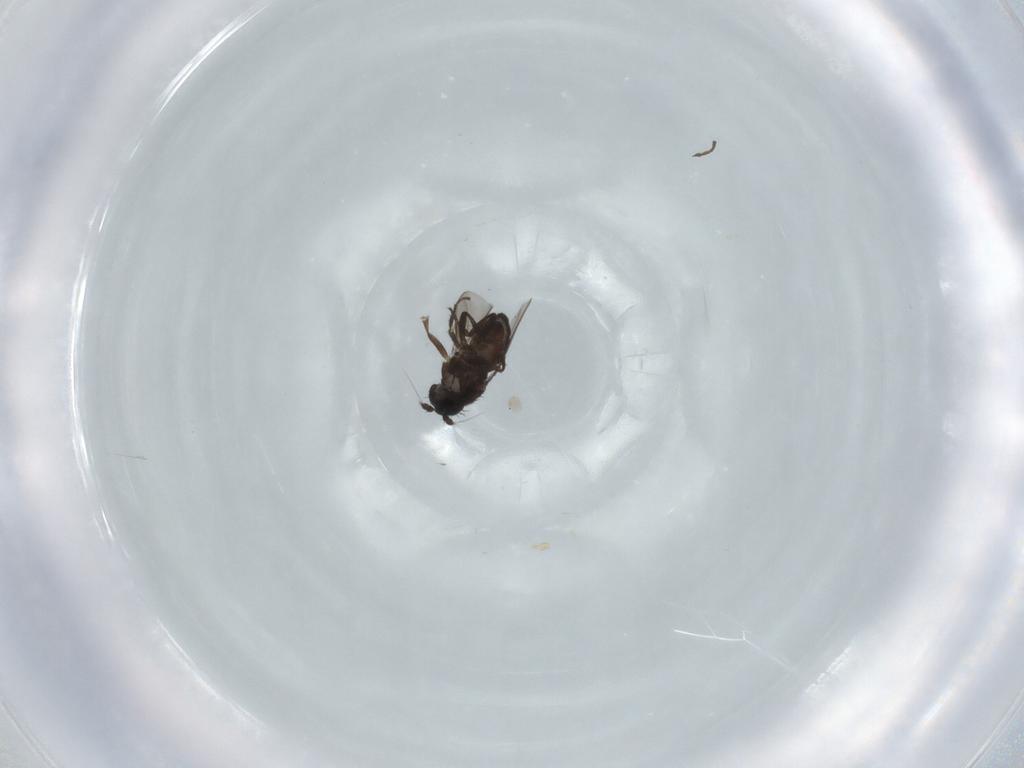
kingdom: Animalia
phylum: Arthropoda
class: Insecta
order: Diptera
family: Sphaeroceridae
